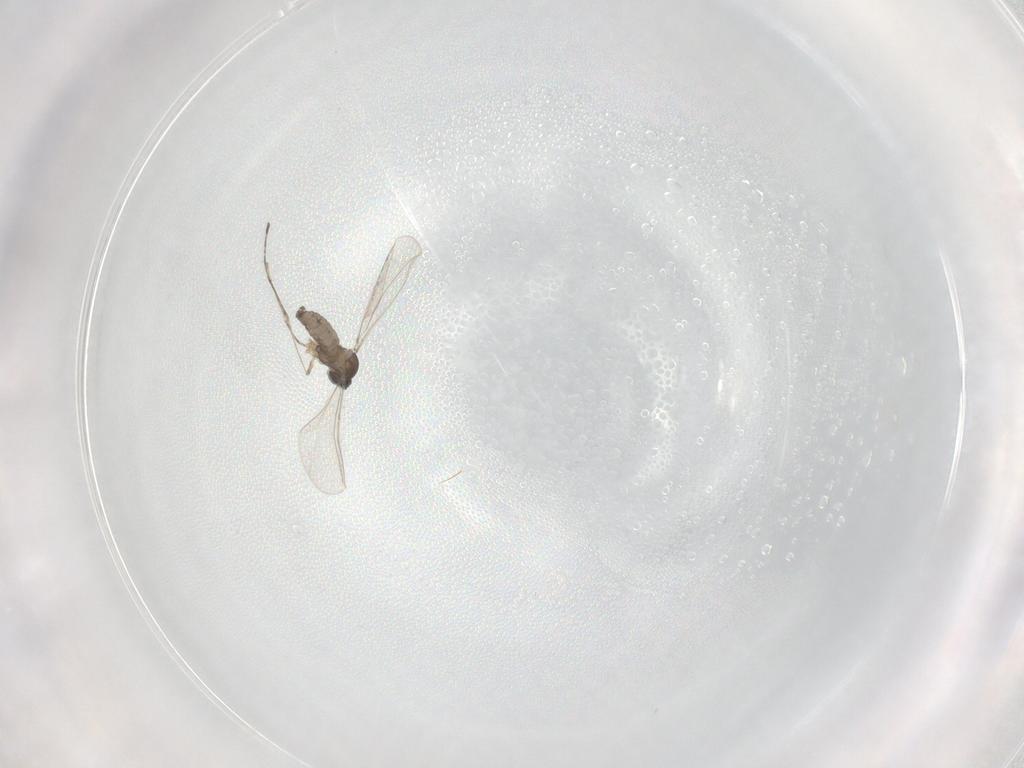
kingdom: Animalia
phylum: Arthropoda
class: Insecta
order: Diptera
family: Cecidomyiidae
